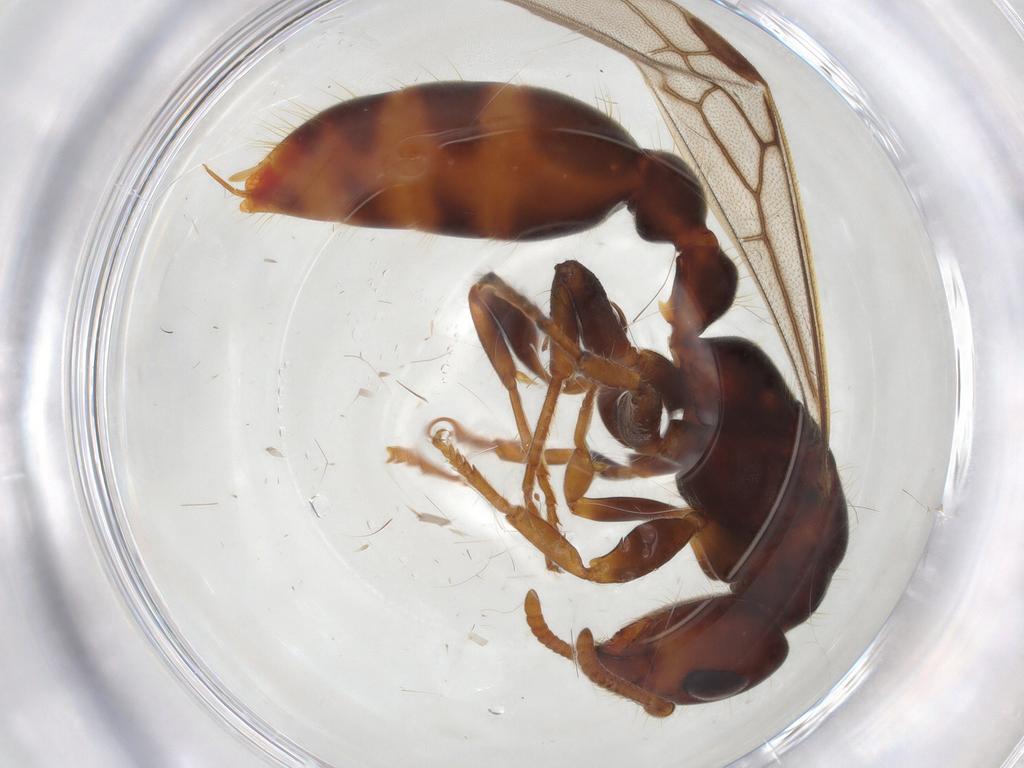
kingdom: Animalia
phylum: Arthropoda
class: Insecta
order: Hymenoptera
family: Formicidae
